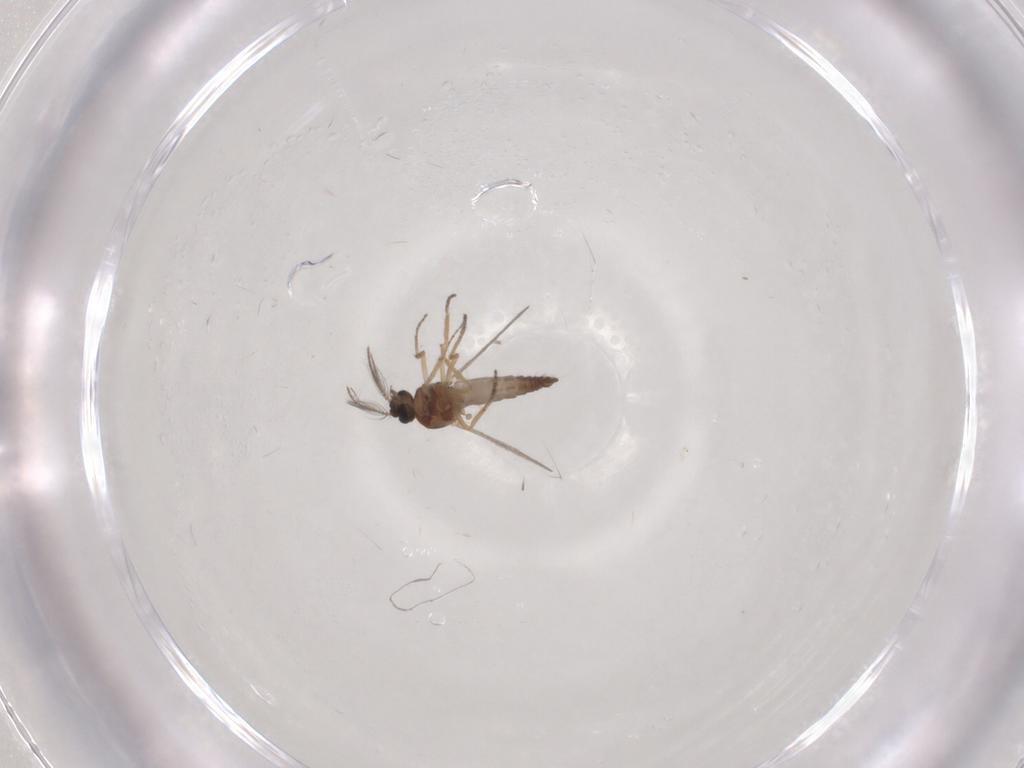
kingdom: Animalia
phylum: Arthropoda
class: Insecta
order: Diptera
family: Ceratopogonidae
